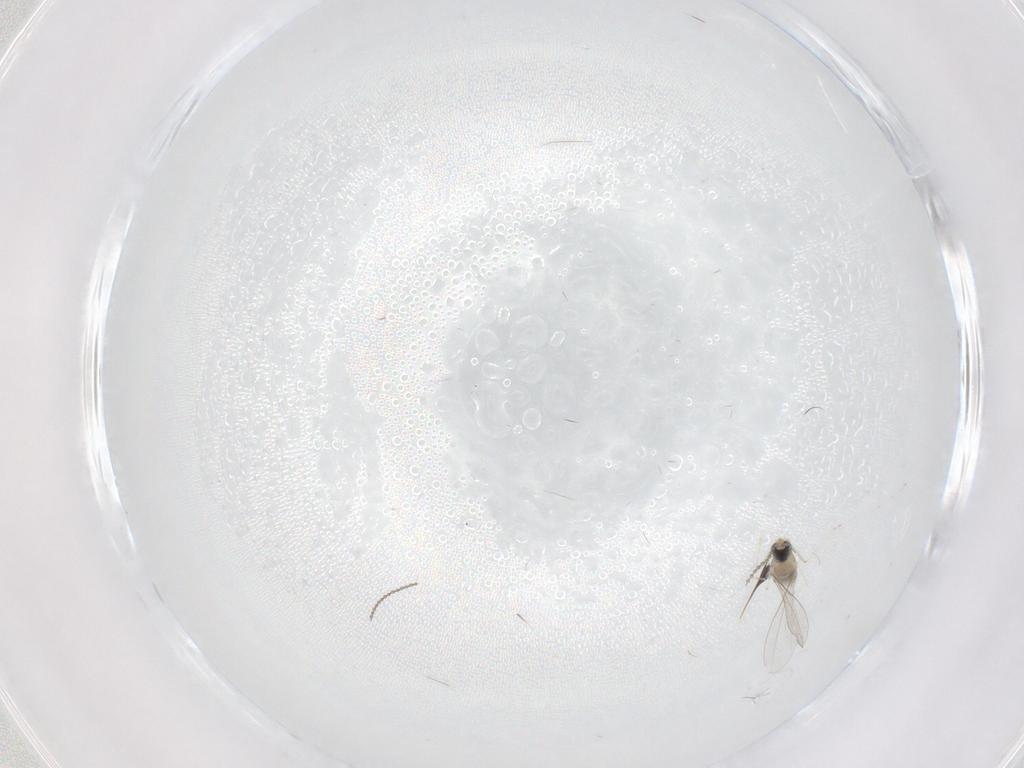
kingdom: Animalia
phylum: Arthropoda
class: Insecta
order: Diptera
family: Cecidomyiidae
